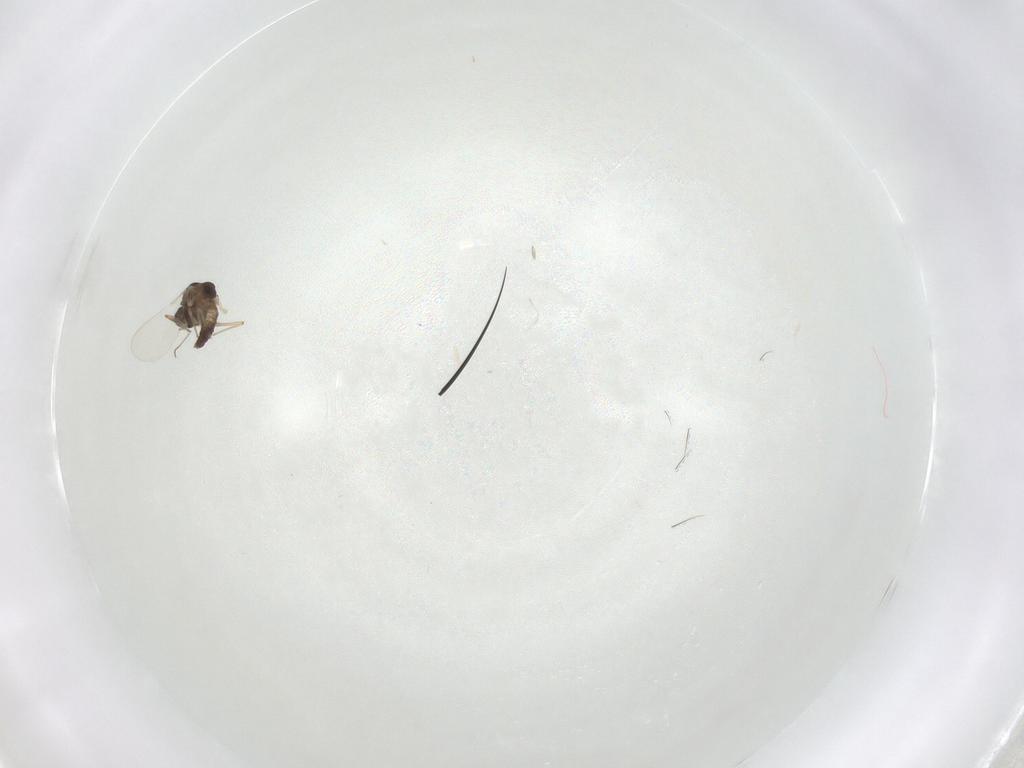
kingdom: Animalia
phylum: Arthropoda
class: Insecta
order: Diptera
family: Chironomidae
